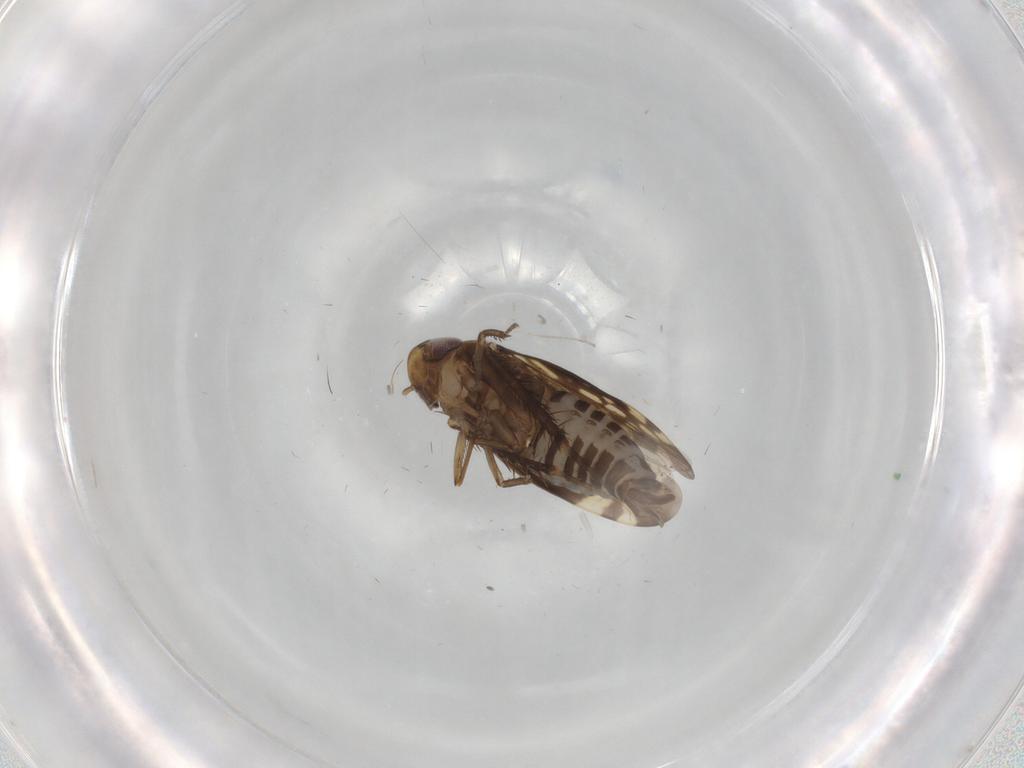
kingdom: Animalia
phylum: Arthropoda
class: Insecta
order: Hemiptera
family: Cicadellidae
